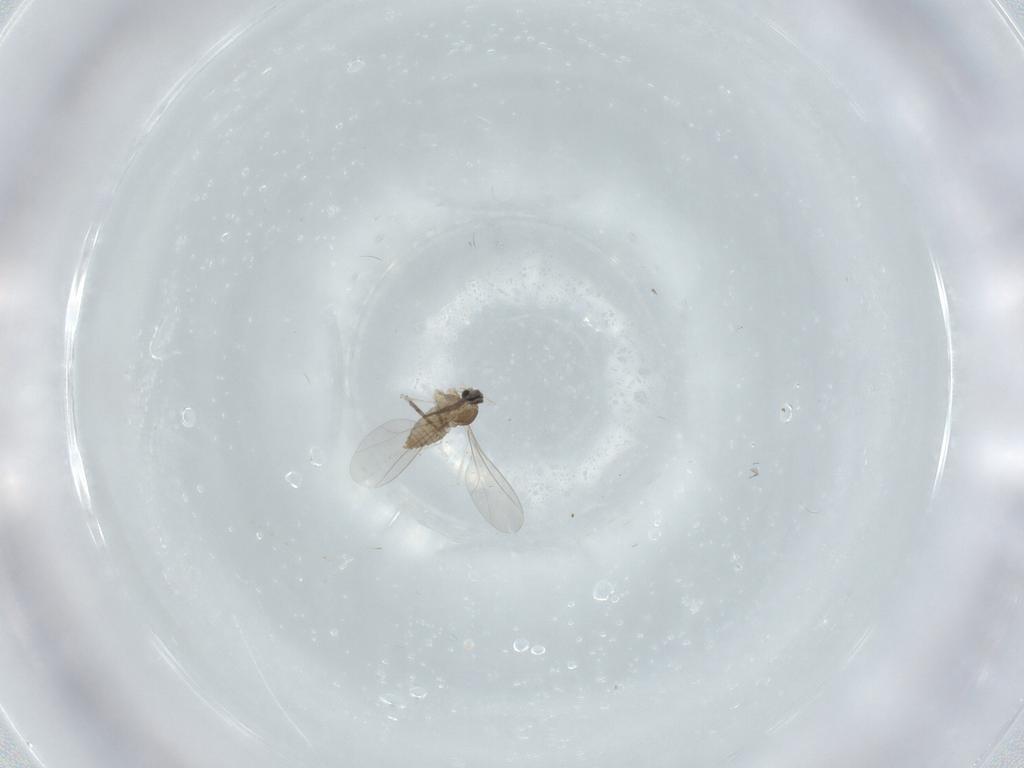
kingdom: Animalia
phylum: Arthropoda
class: Insecta
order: Diptera
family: Cecidomyiidae
